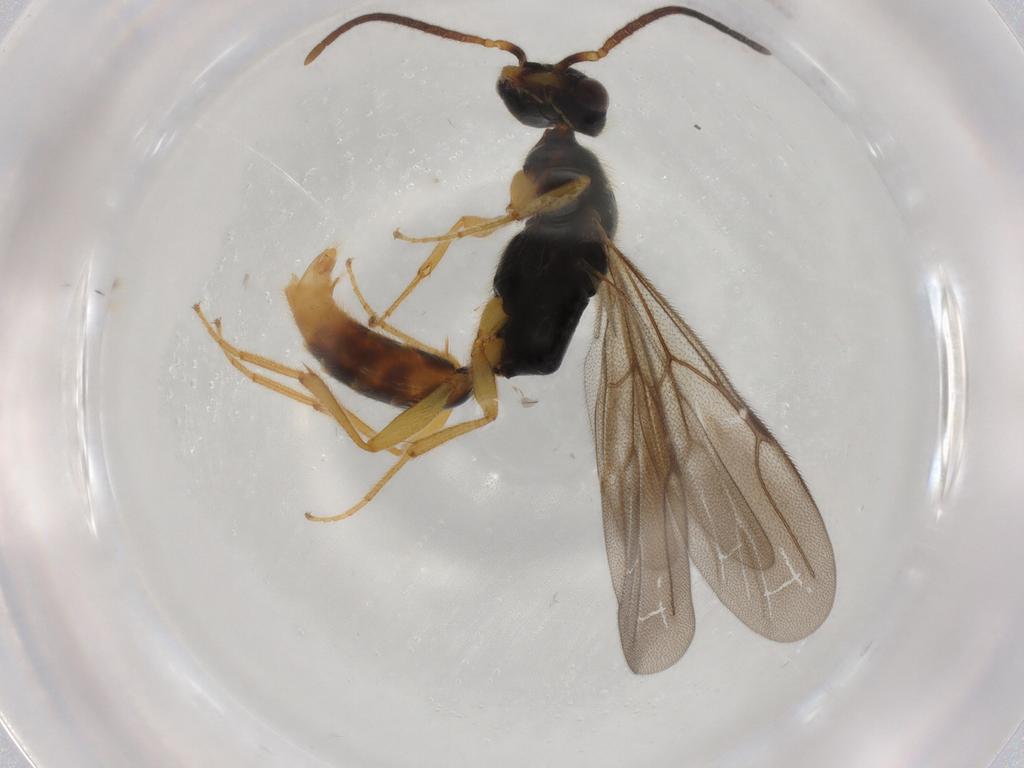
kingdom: Animalia
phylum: Arthropoda
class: Insecta
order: Hymenoptera
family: Bethylidae
